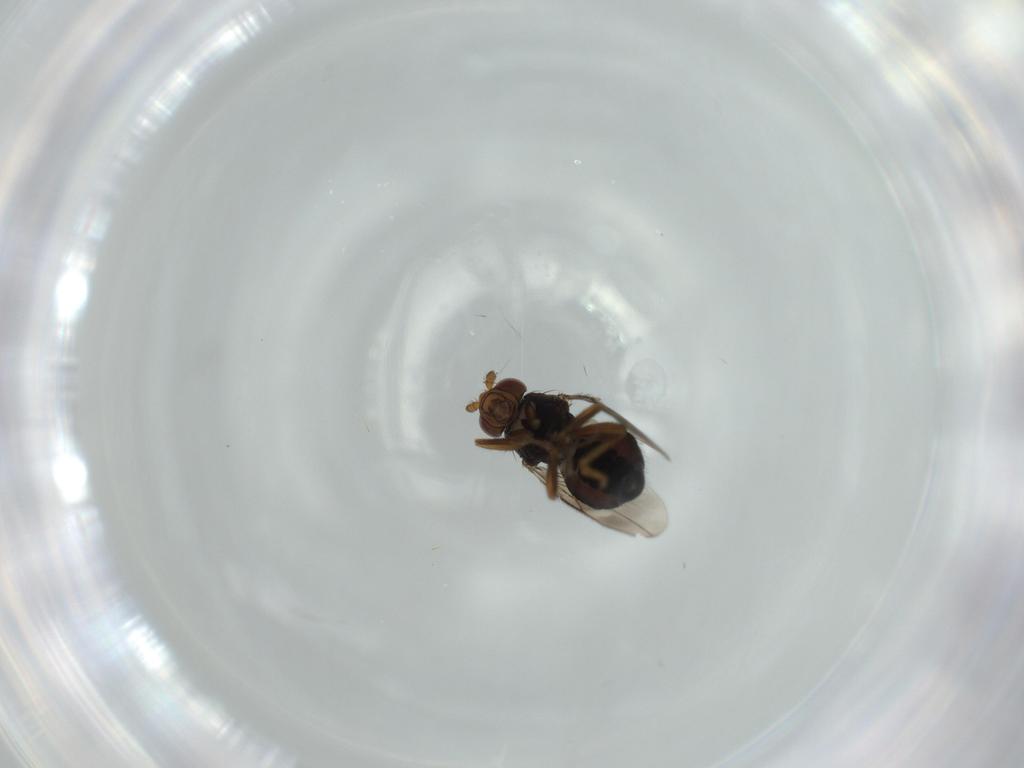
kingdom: Animalia
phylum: Arthropoda
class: Insecta
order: Diptera
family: Sphaeroceridae
